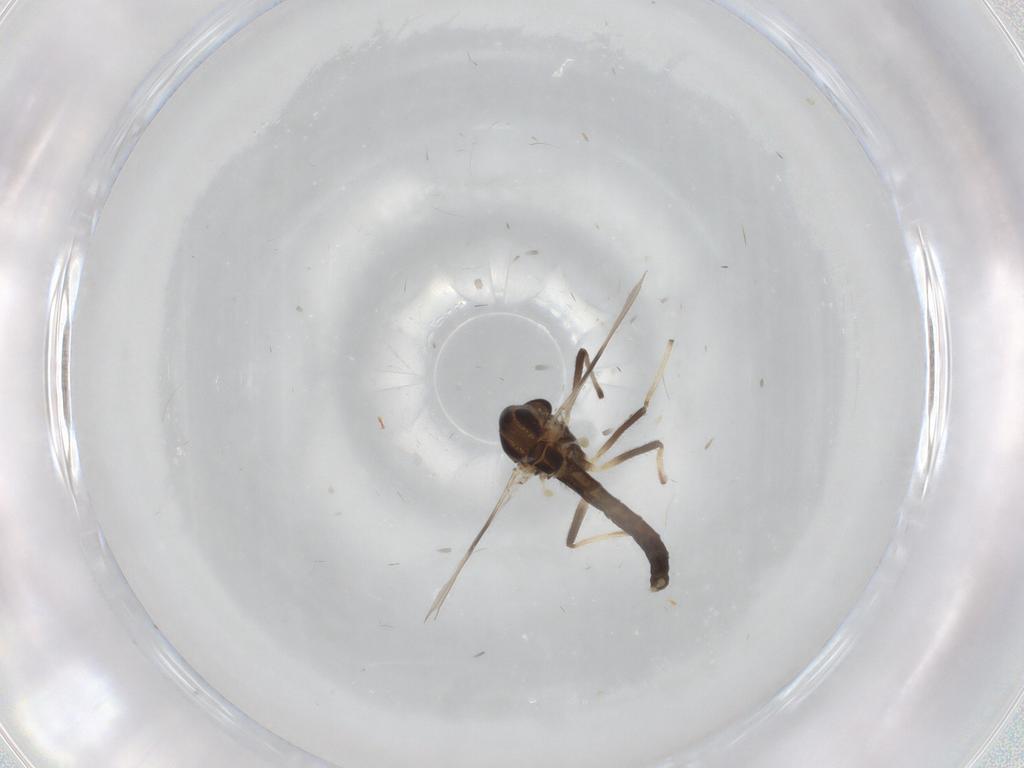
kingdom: Animalia
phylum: Arthropoda
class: Insecta
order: Diptera
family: Chironomidae
